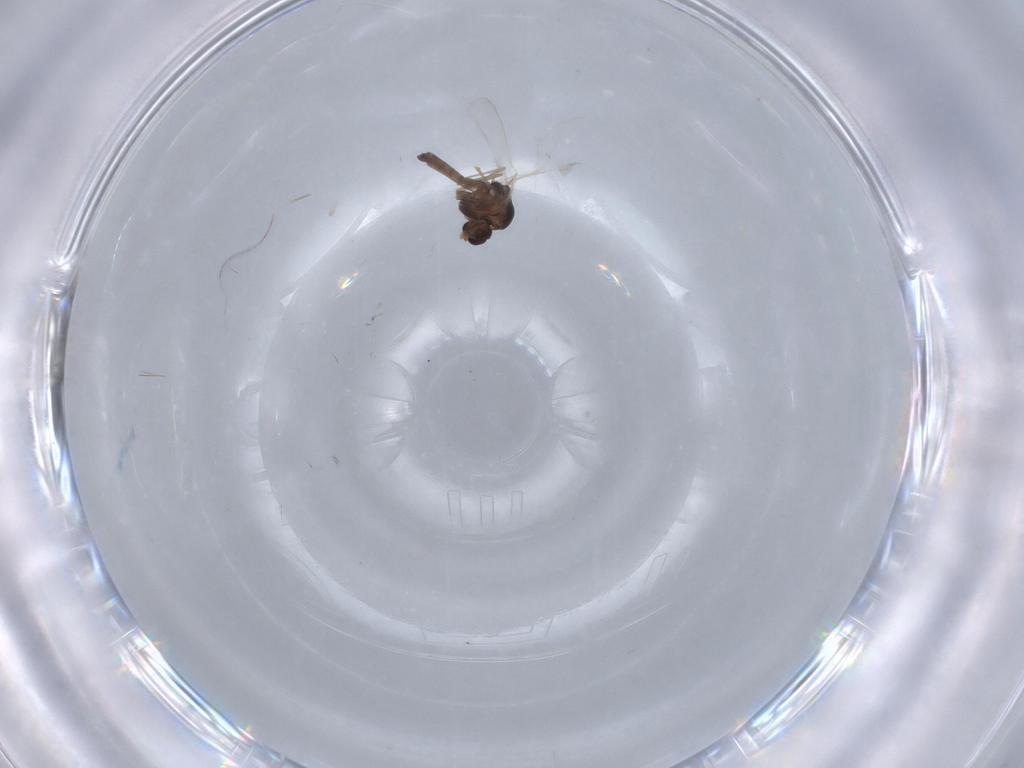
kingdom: Animalia
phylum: Arthropoda
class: Insecta
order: Diptera
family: Chironomidae
